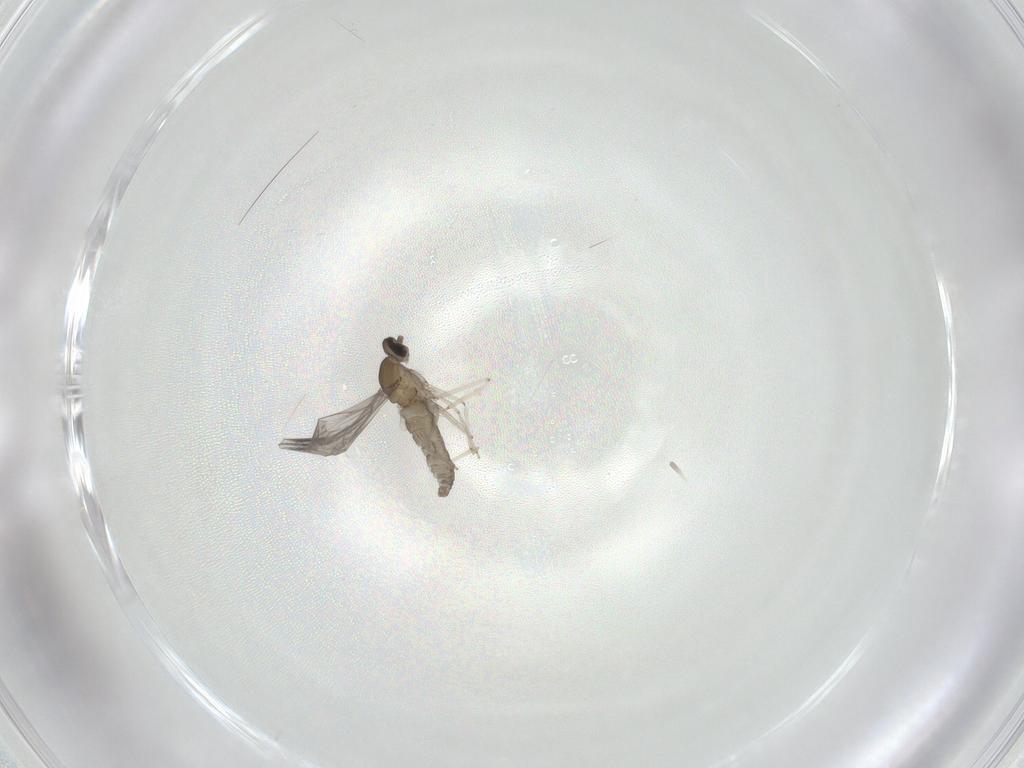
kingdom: Animalia
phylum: Arthropoda
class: Insecta
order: Diptera
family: Cecidomyiidae
